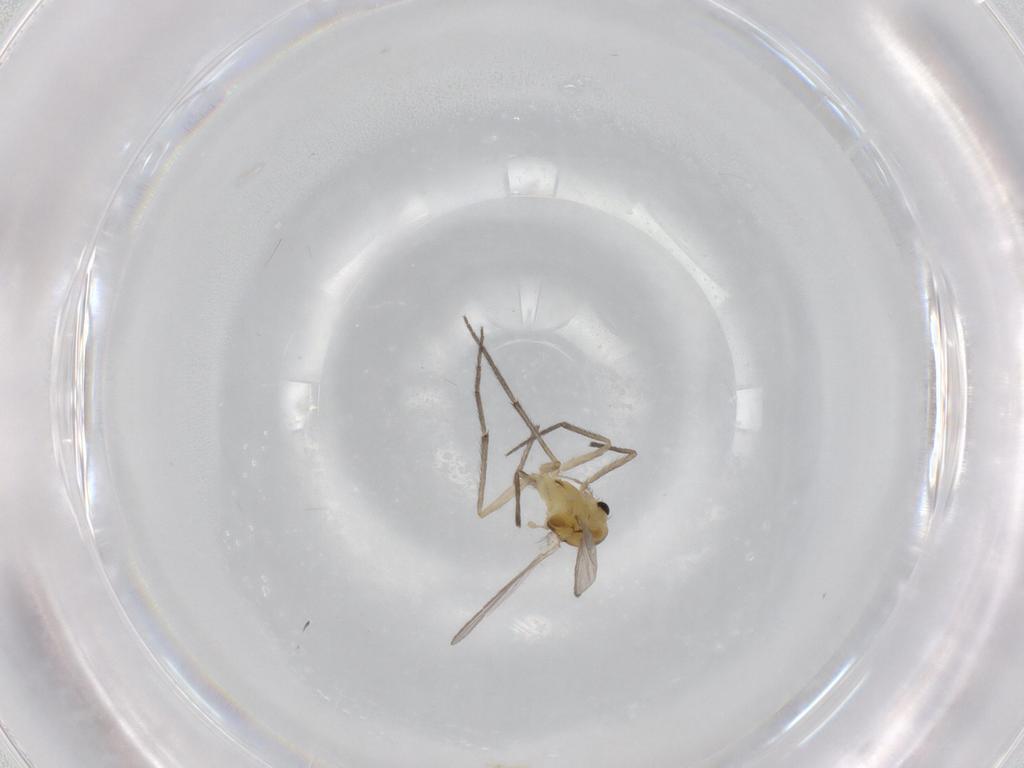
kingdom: Animalia
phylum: Arthropoda
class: Insecta
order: Diptera
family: Chironomidae
